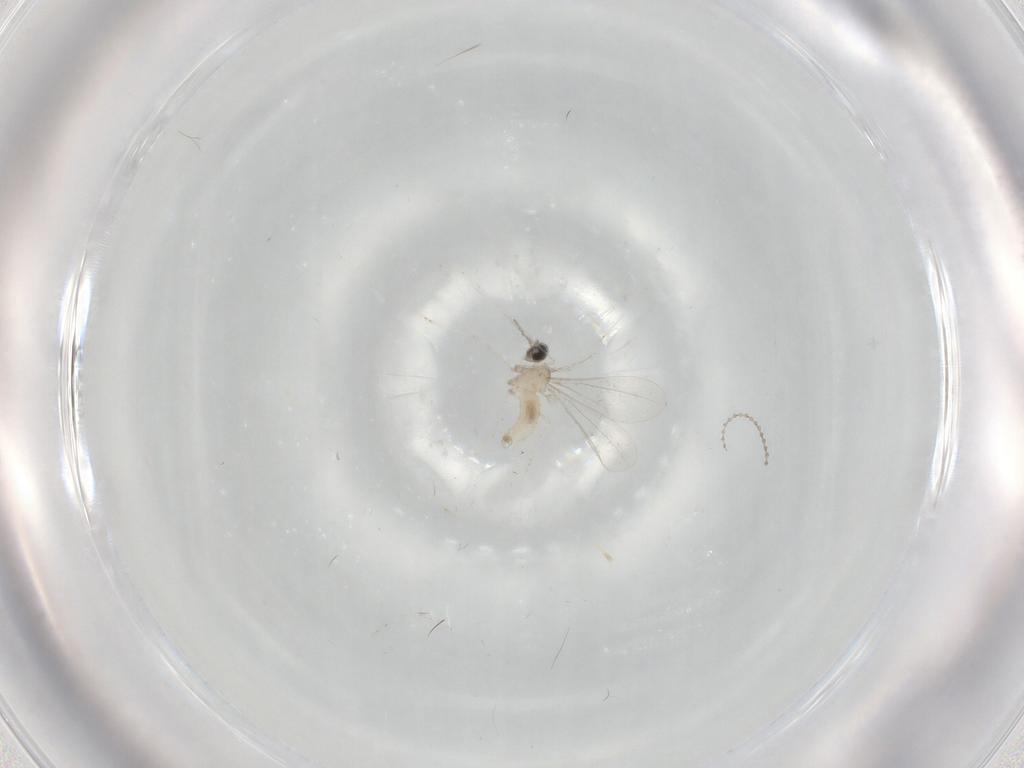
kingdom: Animalia
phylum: Arthropoda
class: Insecta
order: Diptera
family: Cecidomyiidae
